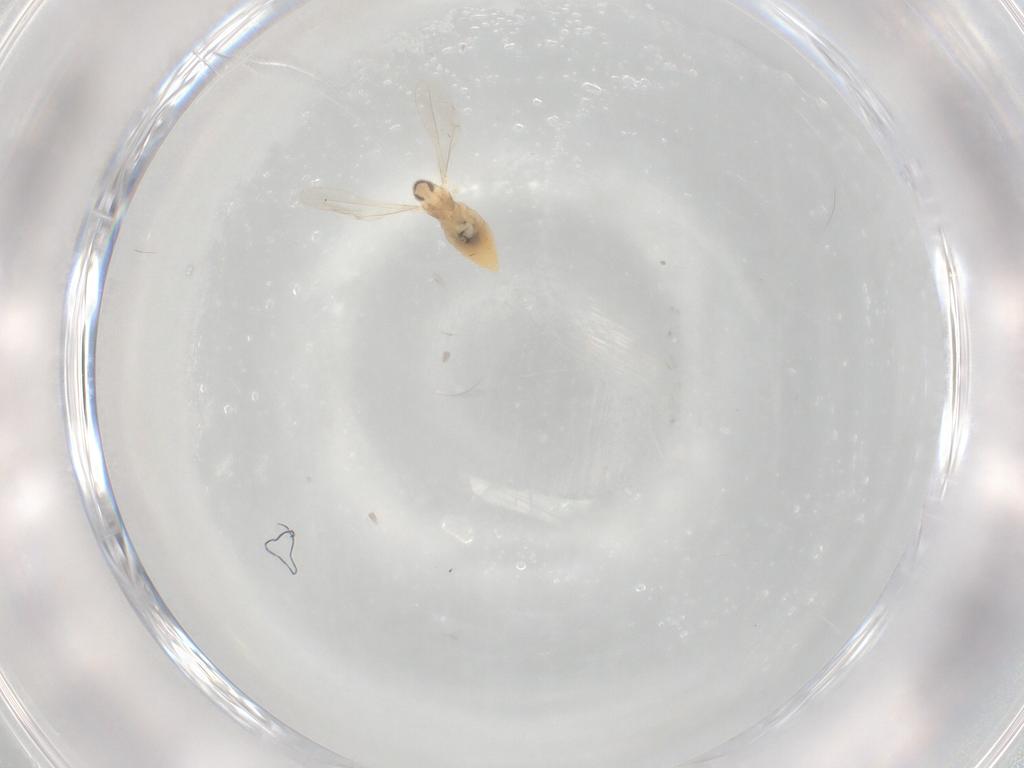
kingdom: Animalia
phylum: Arthropoda
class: Insecta
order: Diptera
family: Cecidomyiidae
